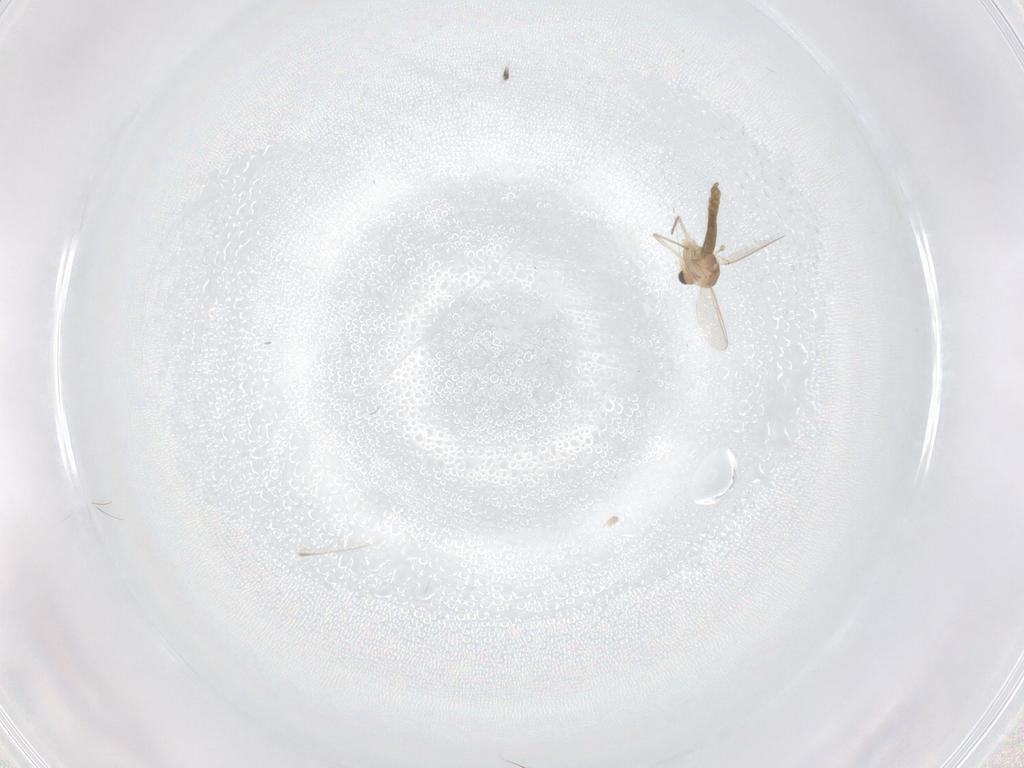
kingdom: Animalia
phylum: Arthropoda
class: Insecta
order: Diptera
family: Chironomidae
